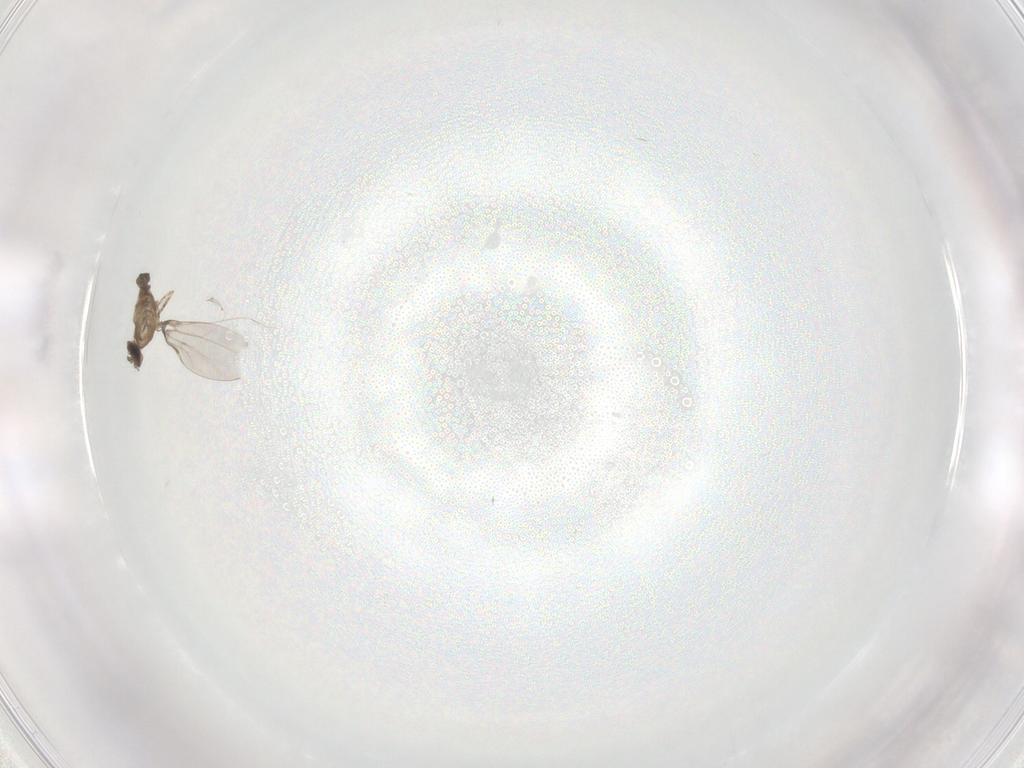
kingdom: Animalia
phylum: Arthropoda
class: Insecta
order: Diptera
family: Cecidomyiidae
